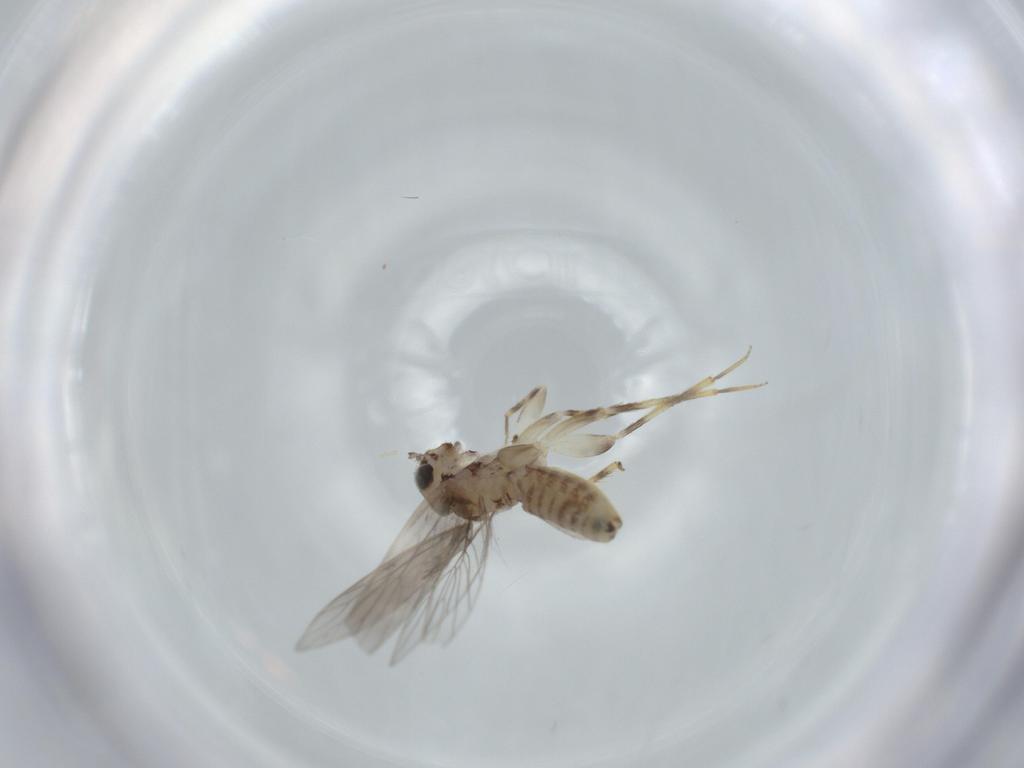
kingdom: Animalia
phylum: Arthropoda
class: Insecta
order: Psocodea
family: Lepidopsocidae
